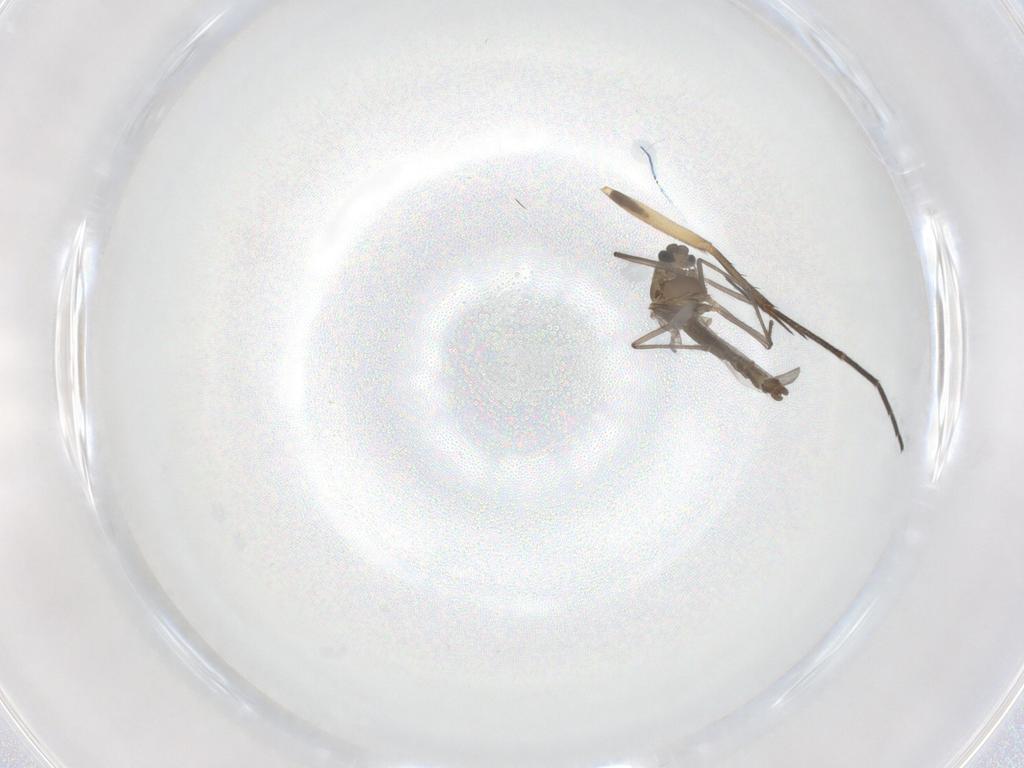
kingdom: Animalia
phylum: Arthropoda
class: Insecta
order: Diptera
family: Chironomidae
